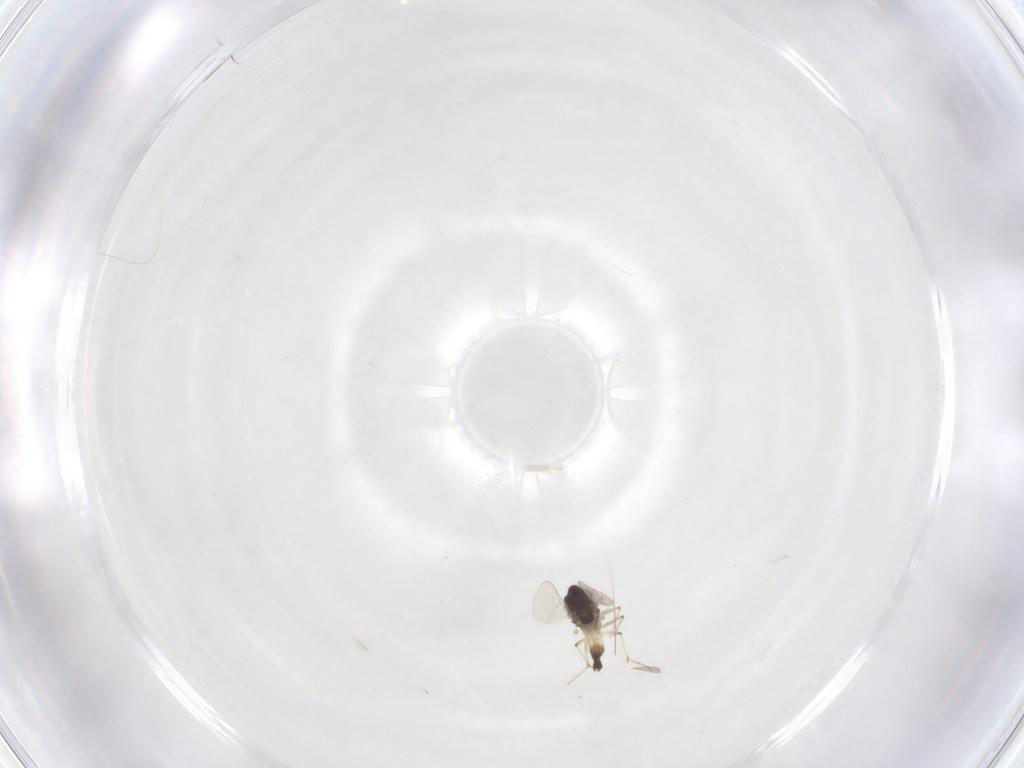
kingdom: Animalia
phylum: Arthropoda
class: Insecta
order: Diptera
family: Chironomidae
